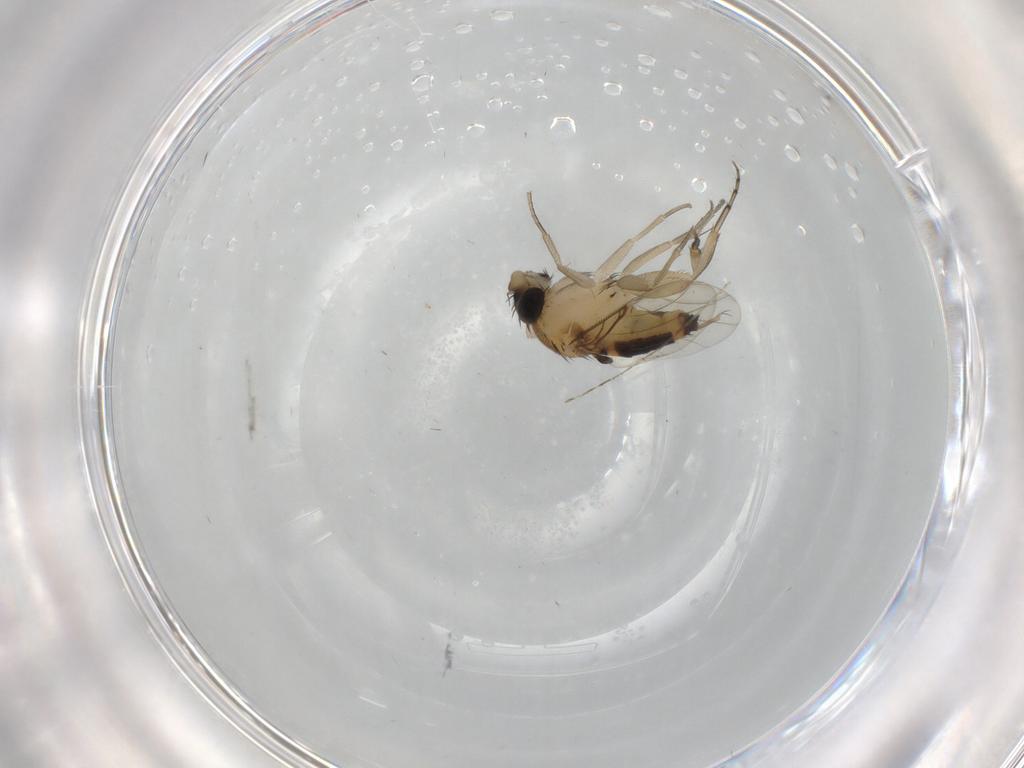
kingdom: Animalia
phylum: Arthropoda
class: Insecta
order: Diptera
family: Phoridae
